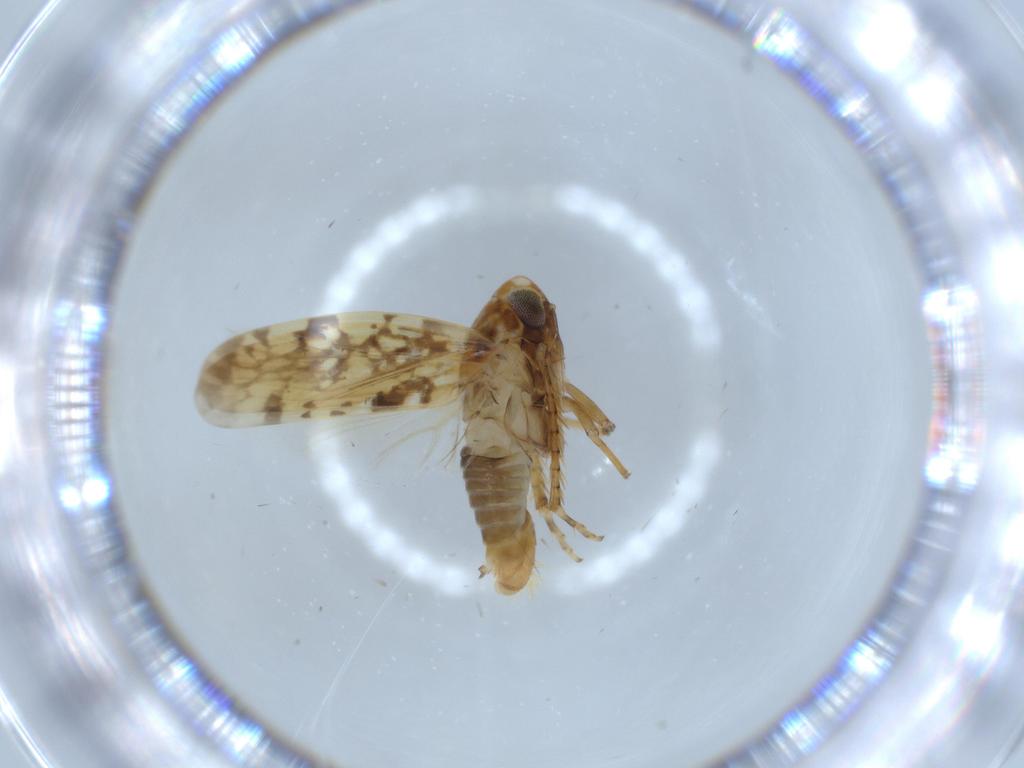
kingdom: Animalia
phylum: Arthropoda
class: Insecta
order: Hemiptera
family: Cicadellidae
